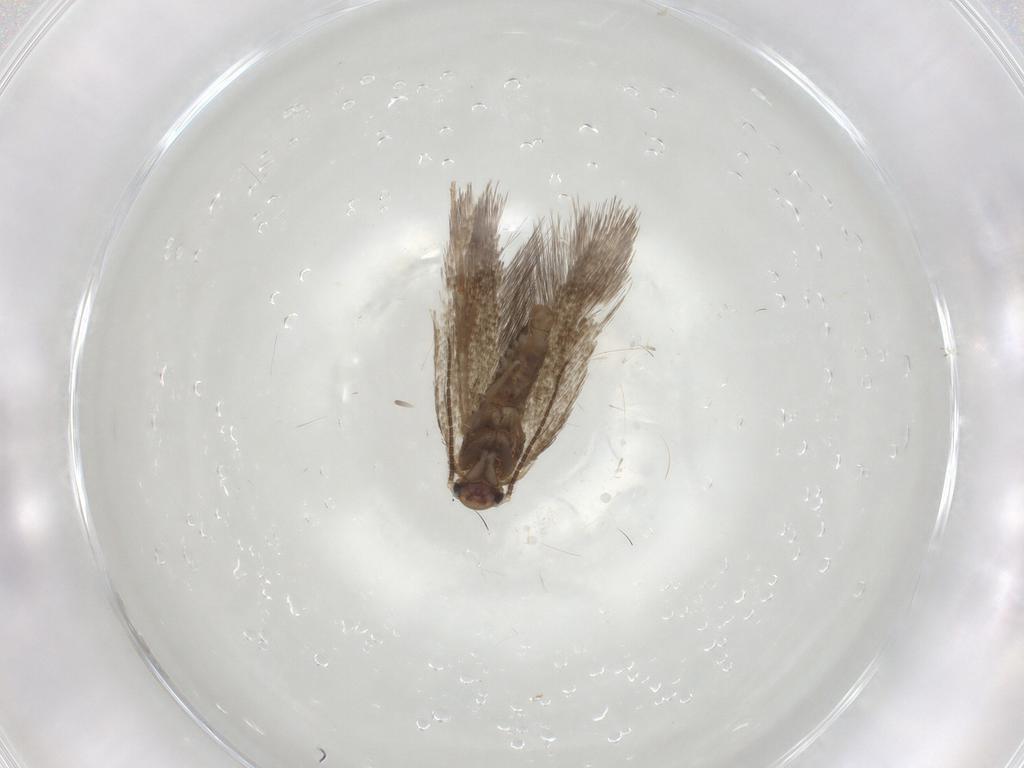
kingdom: Animalia
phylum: Arthropoda
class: Insecta
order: Lepidoptera
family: Psychidae
